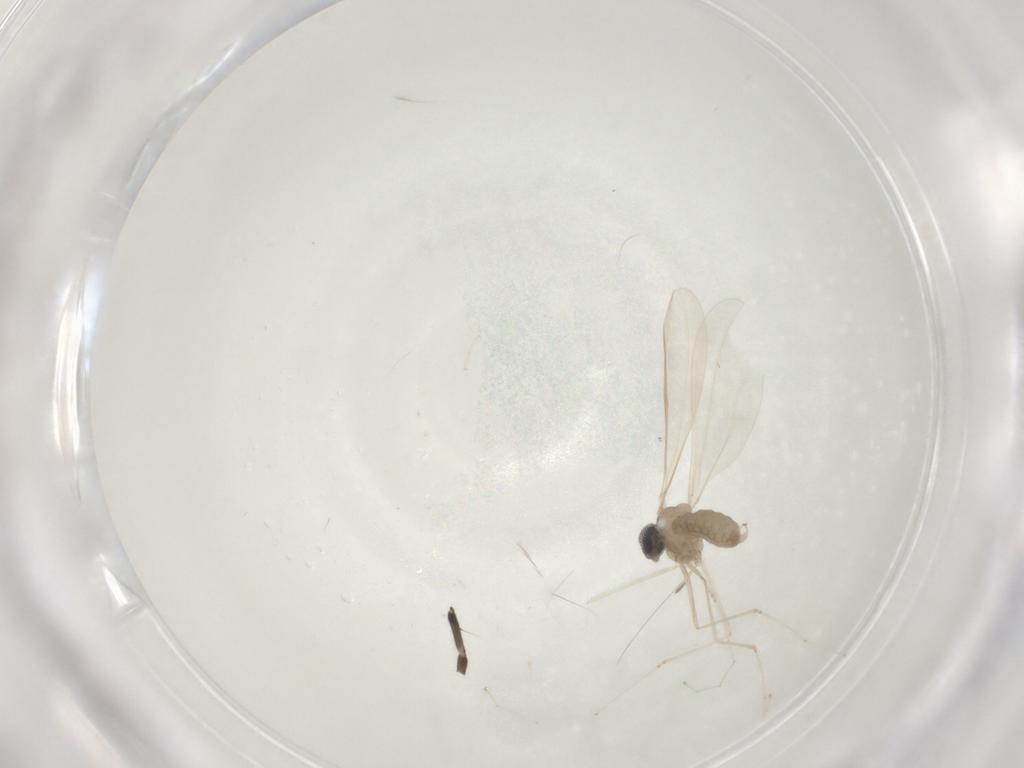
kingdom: Animalia
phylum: Arthropoda
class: Insecta
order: Diptera
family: Cecidomyiidae
